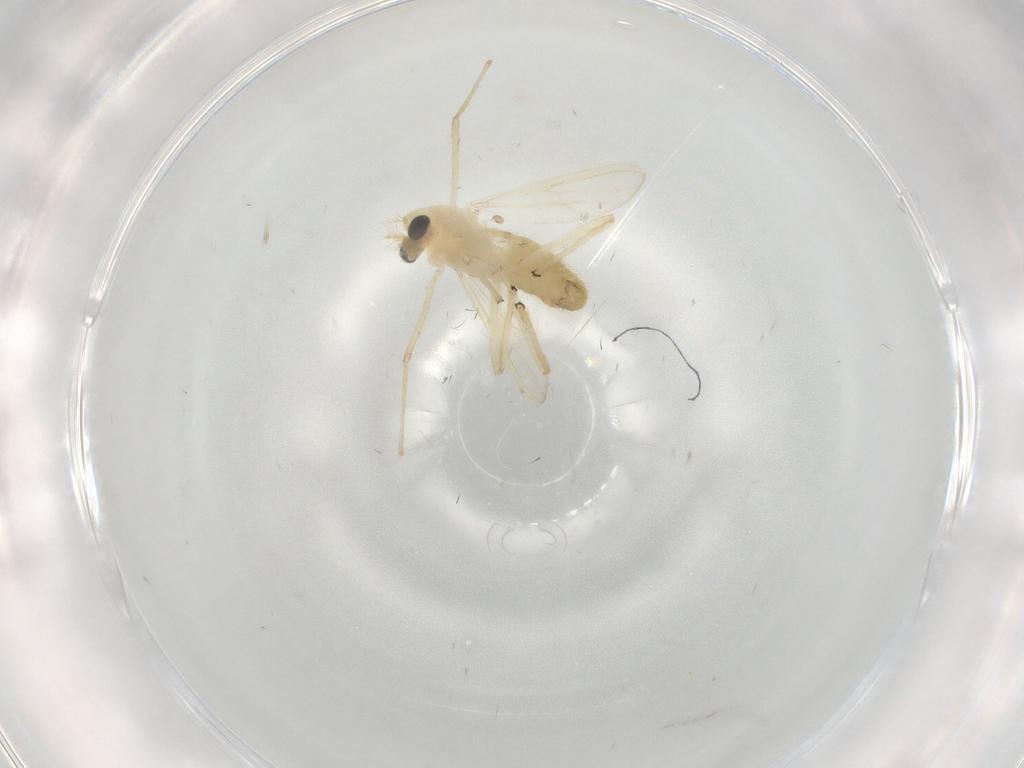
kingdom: Animalia
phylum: Arthropoda
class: Insecta
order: Diptera
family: Chironomidae
